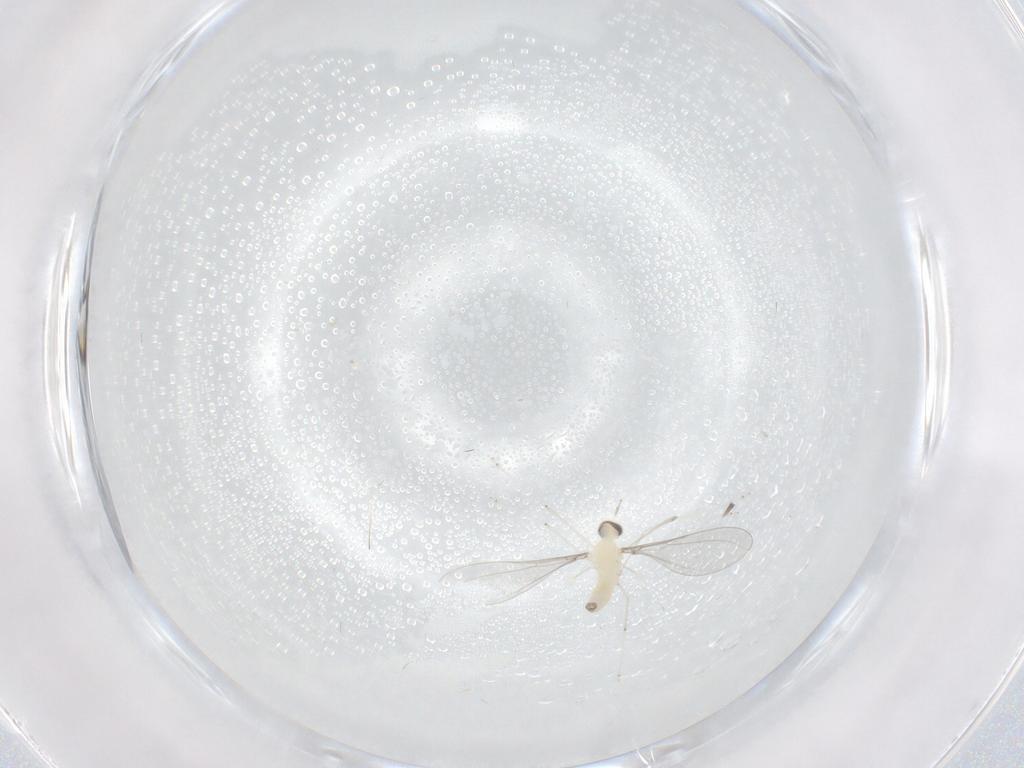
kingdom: Animalia
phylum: Arthropoda
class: Insecta
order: Diptera
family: Cecidomyiidae
